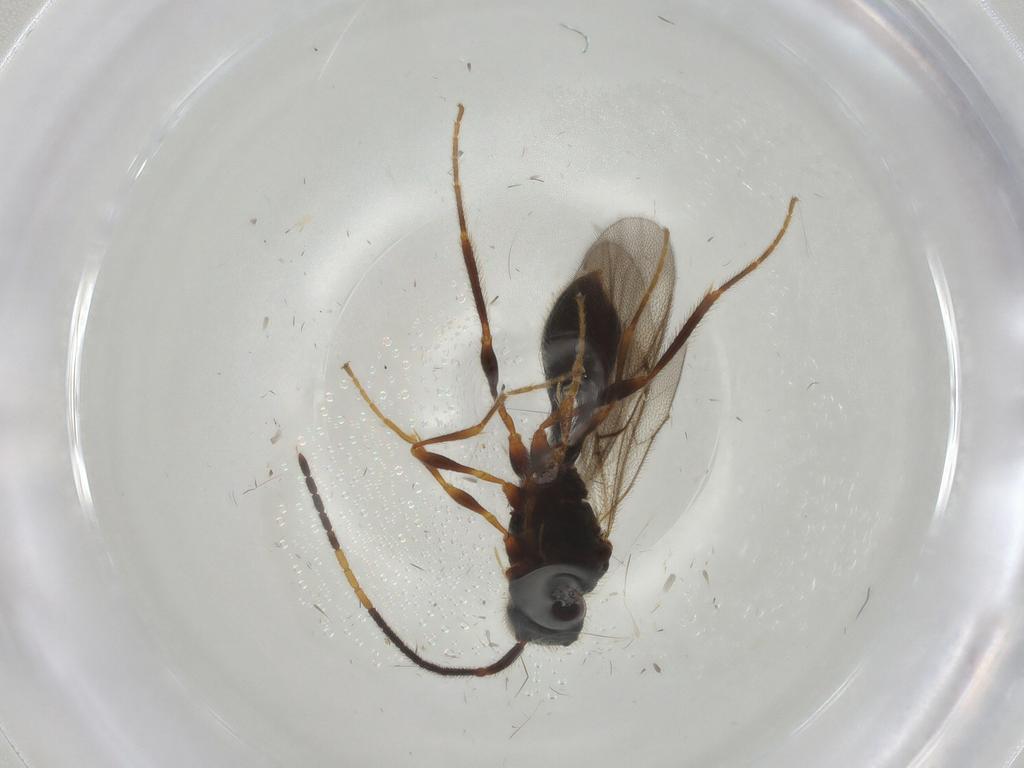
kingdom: Animalia
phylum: Arthropoda
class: Insecta
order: Hymenoptera
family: Diapriidae
